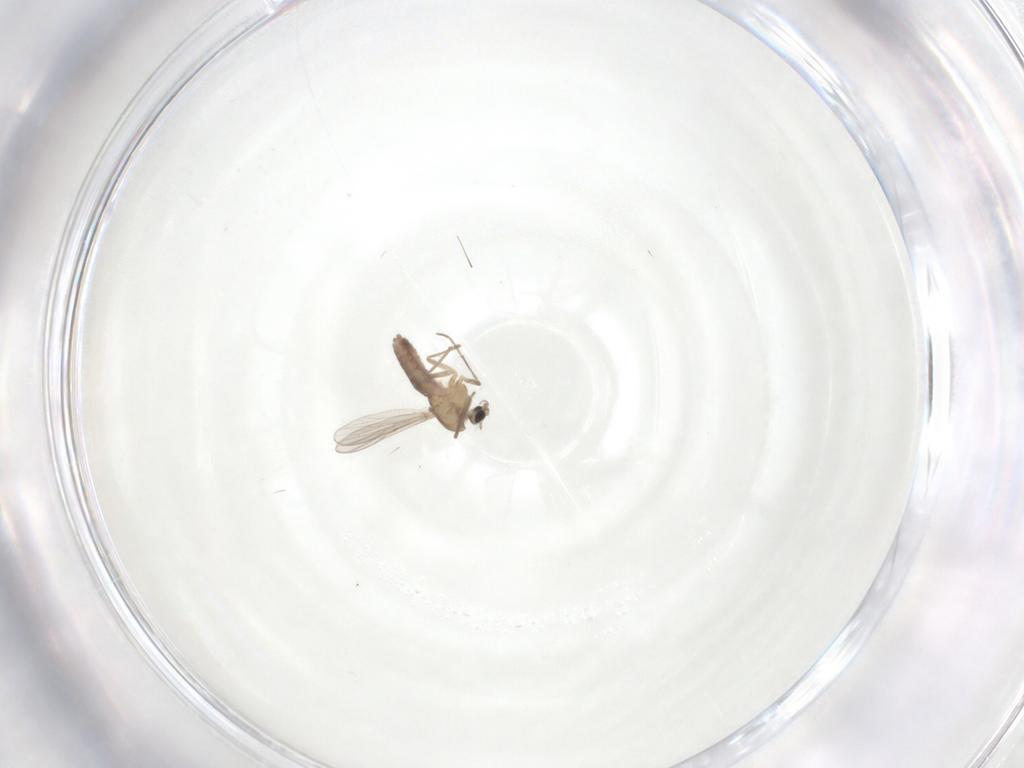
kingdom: Animalia
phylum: Arthropoda
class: Insecta
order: Diptera
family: Chironomidae
